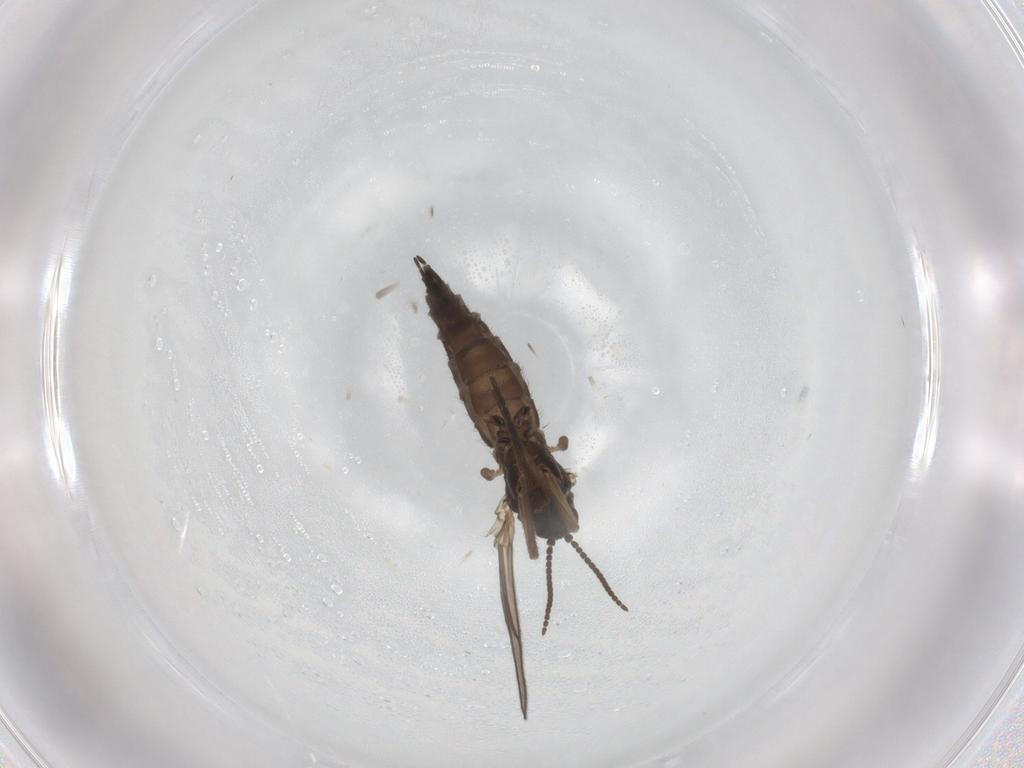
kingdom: Animalia
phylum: Arthropoda
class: Insecta
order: Diptera
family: Sciaridae
